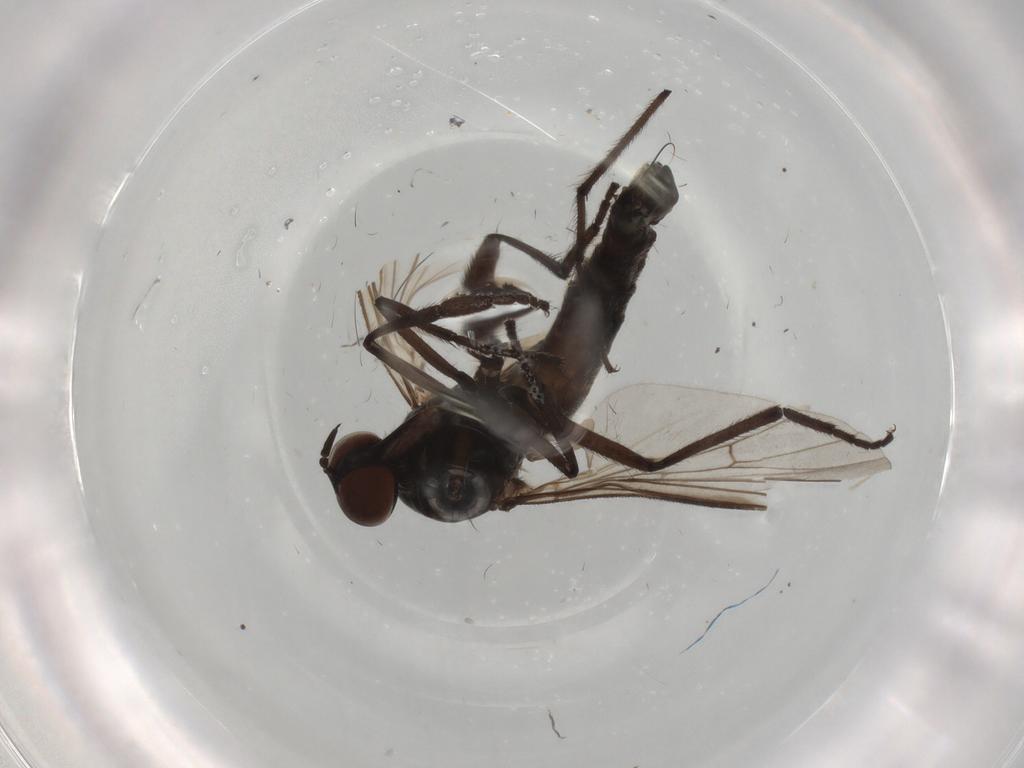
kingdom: Animalia
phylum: Arthropoda
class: Insecta
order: Diptera
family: Empididae
